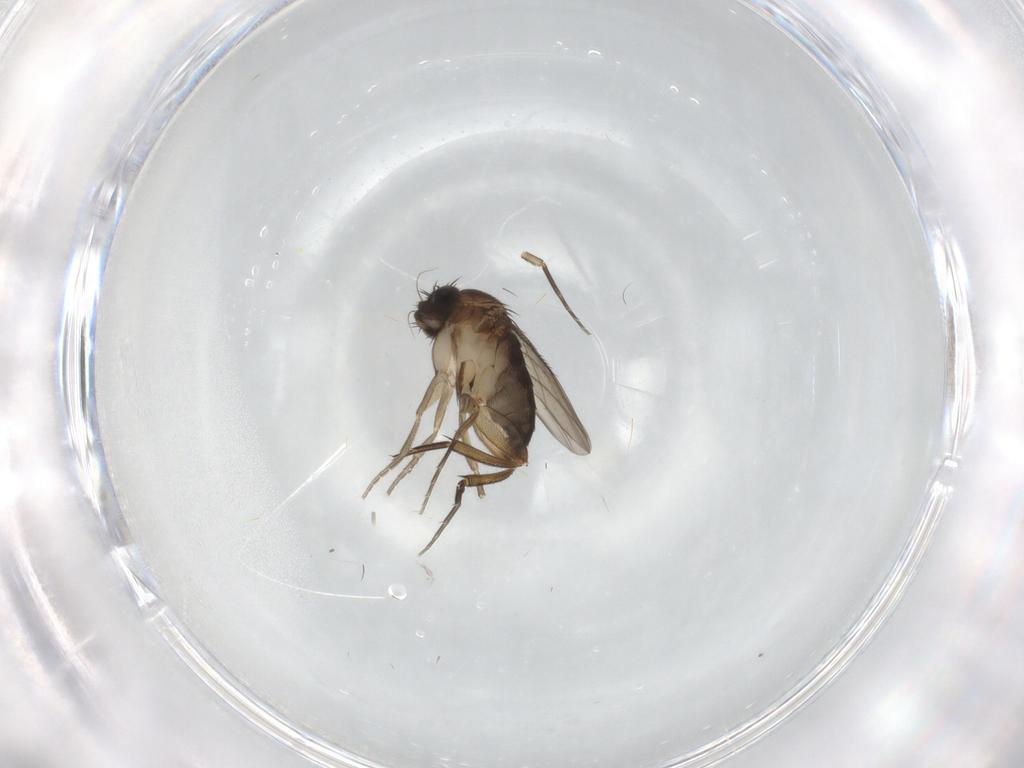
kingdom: Animalia
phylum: Arthropoda
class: Insecta
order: Diptera
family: Phoridae
